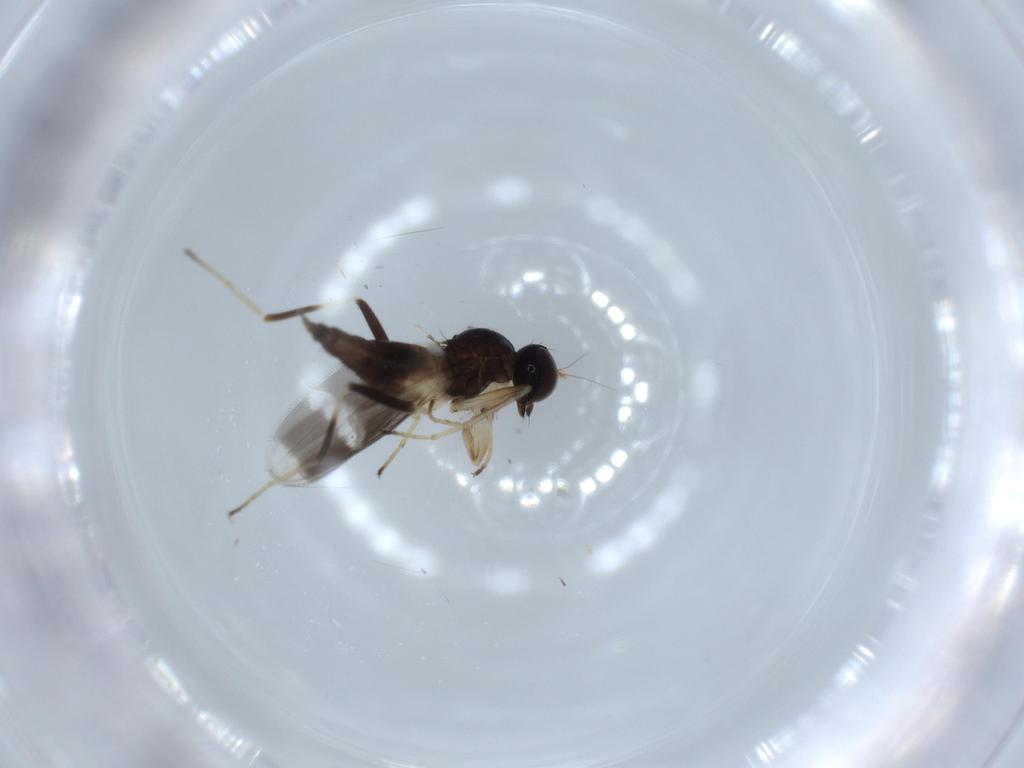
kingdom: Animalia
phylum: Arthropoda
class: Insecta
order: Diptera
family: Hybotidae
